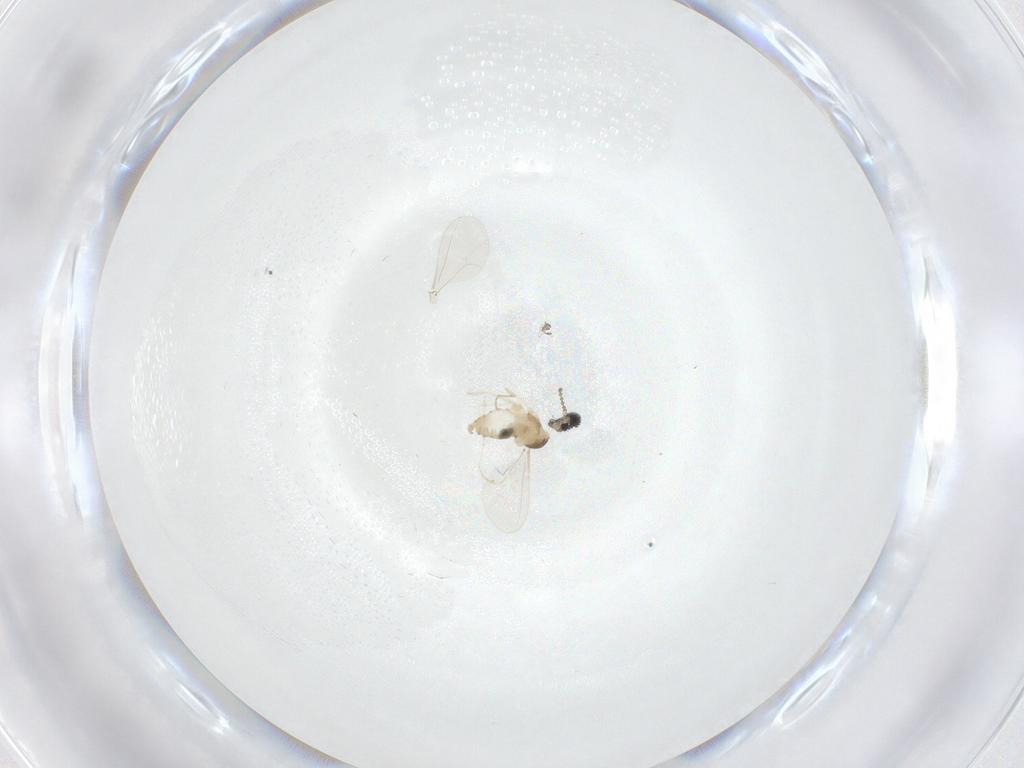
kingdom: Animalia
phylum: Arthropoda
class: Insecta
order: Diptera
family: Cecidomyiidae
